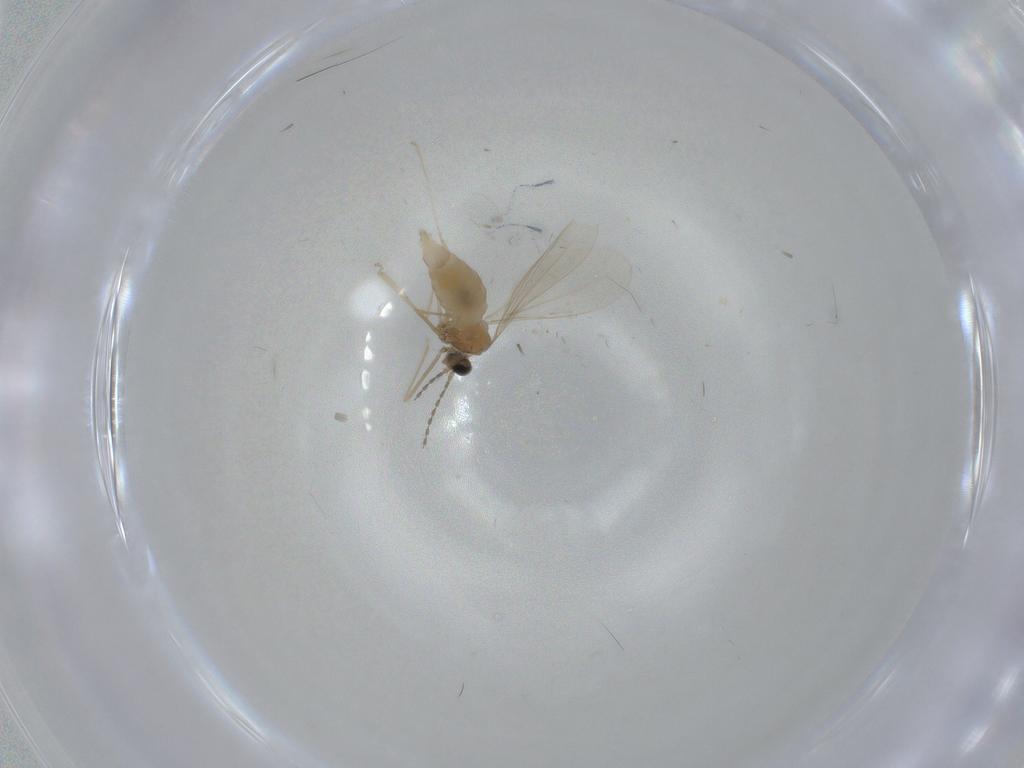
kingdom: Animalia
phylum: Arthropoda
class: Insecta
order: Diptera
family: Cecidomyiidae
